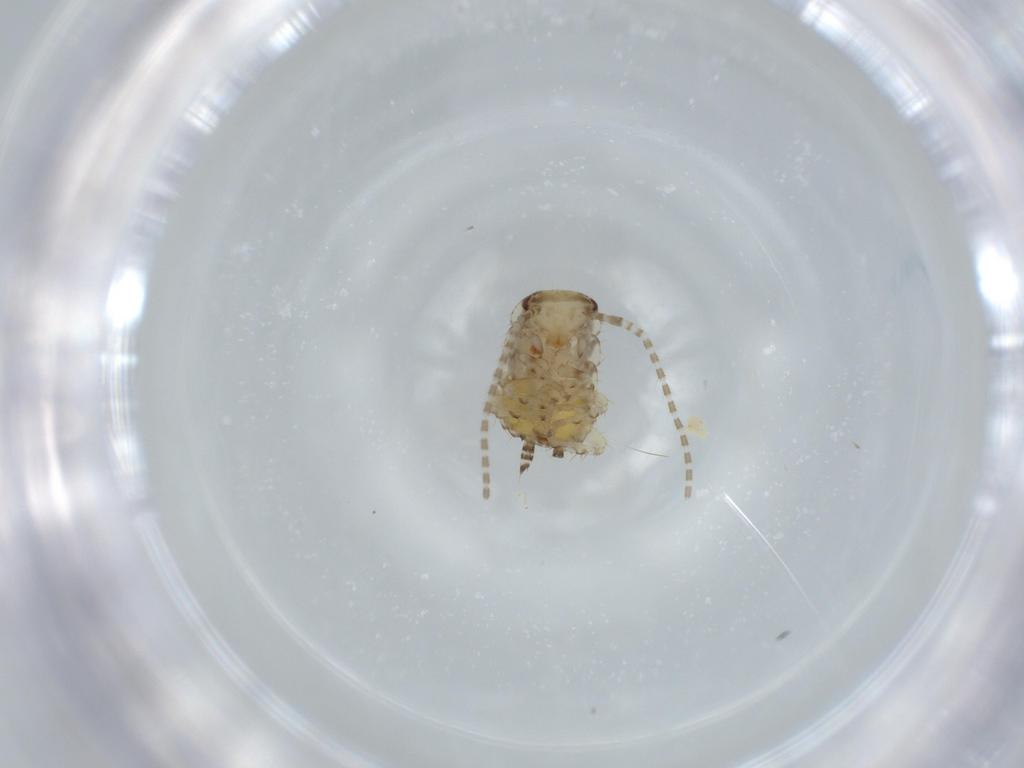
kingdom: Animalia
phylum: Arthropoda
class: Insecta
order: Blattodea
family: Ectobiidae
